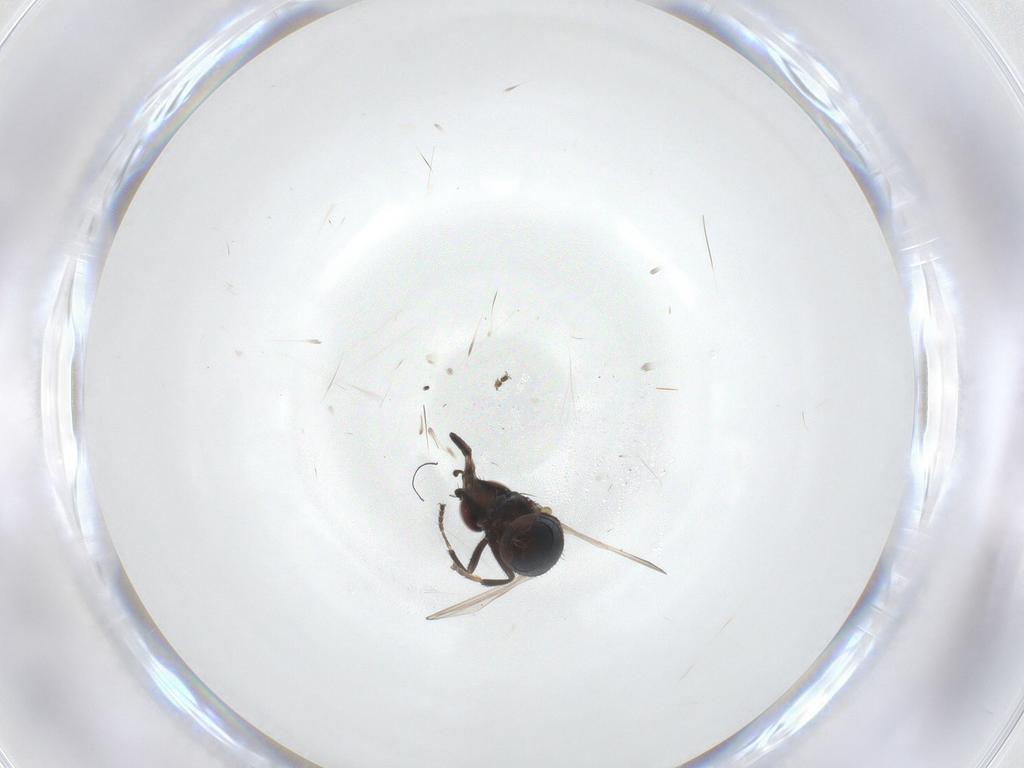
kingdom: Animalia
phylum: Arthropoda
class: Insecta
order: Diptera
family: Milichiidae
